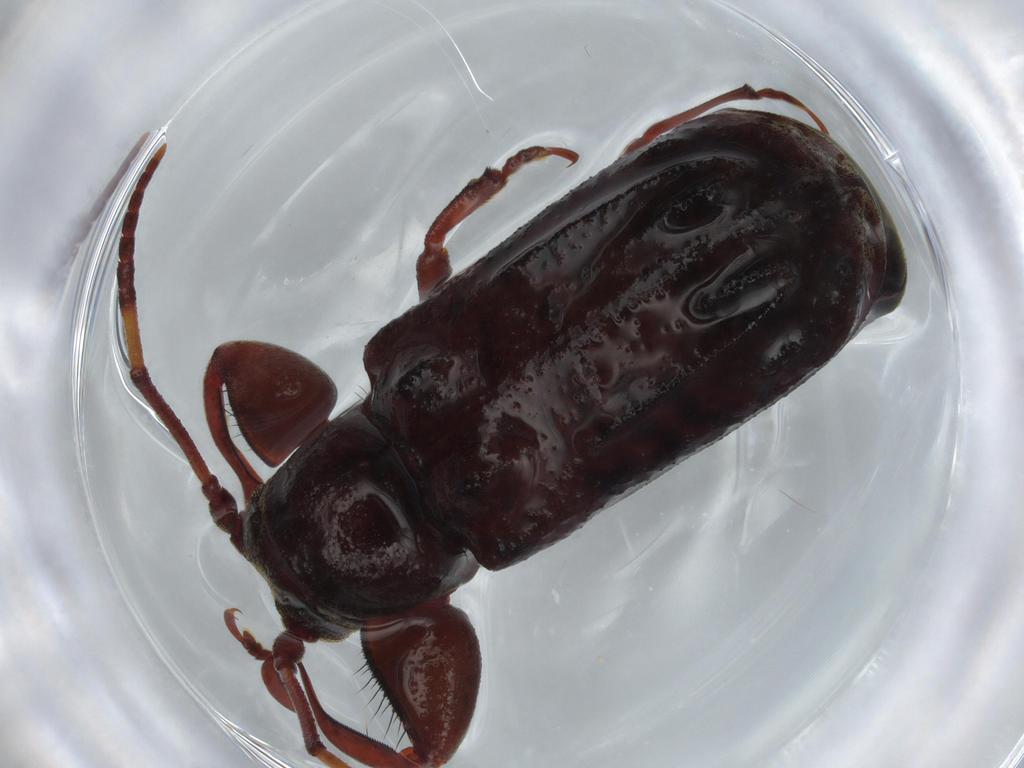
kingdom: Animalia
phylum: Arthropoda
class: Insecta
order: Coleoptera
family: Cerambycidae
